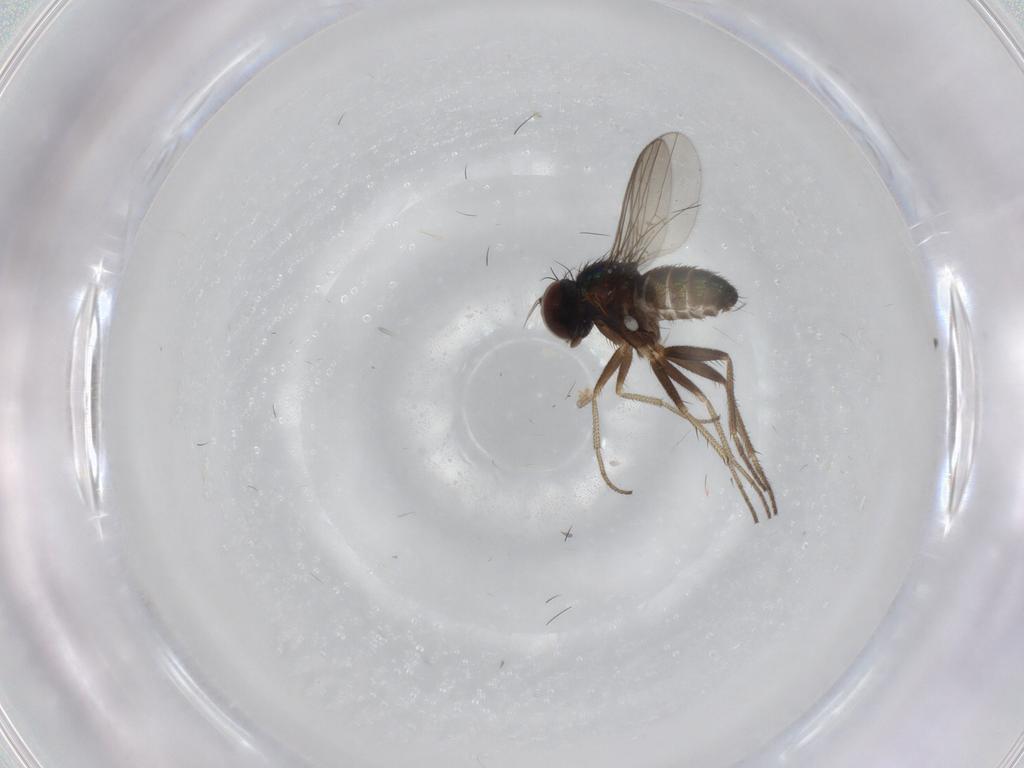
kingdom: Animalia
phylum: Arthropoda
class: Insecta
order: Diptera
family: Limoniidae
